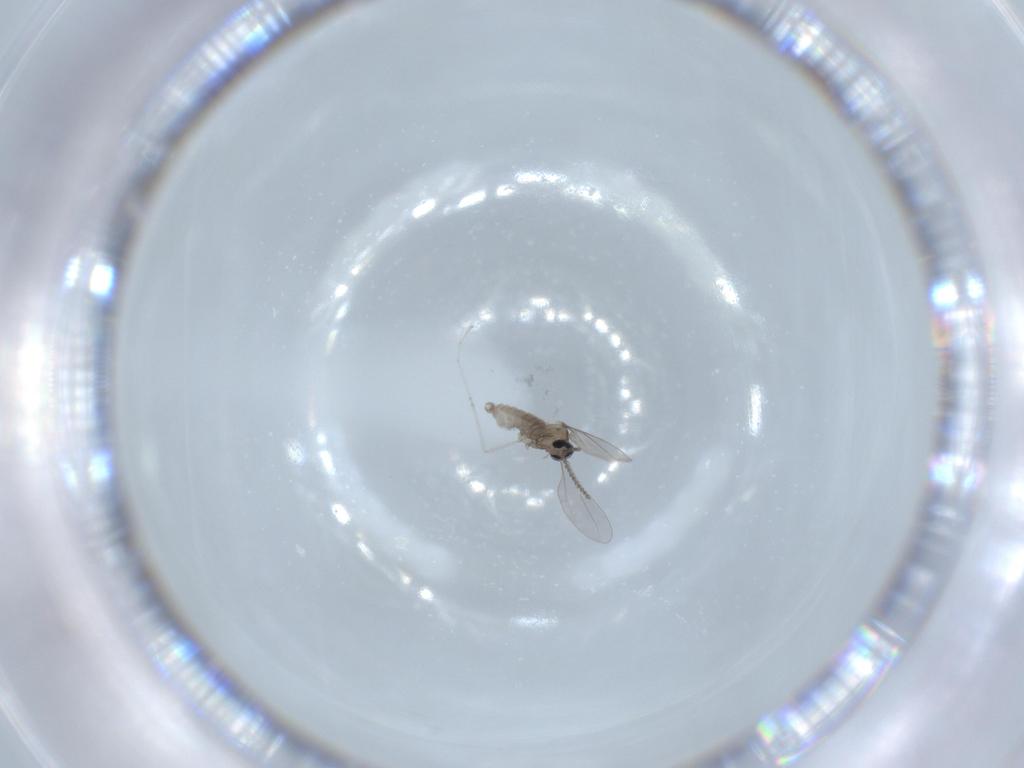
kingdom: Animalia
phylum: Arthropoda
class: Insecta
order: Diptera
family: Cecidomyiidae
